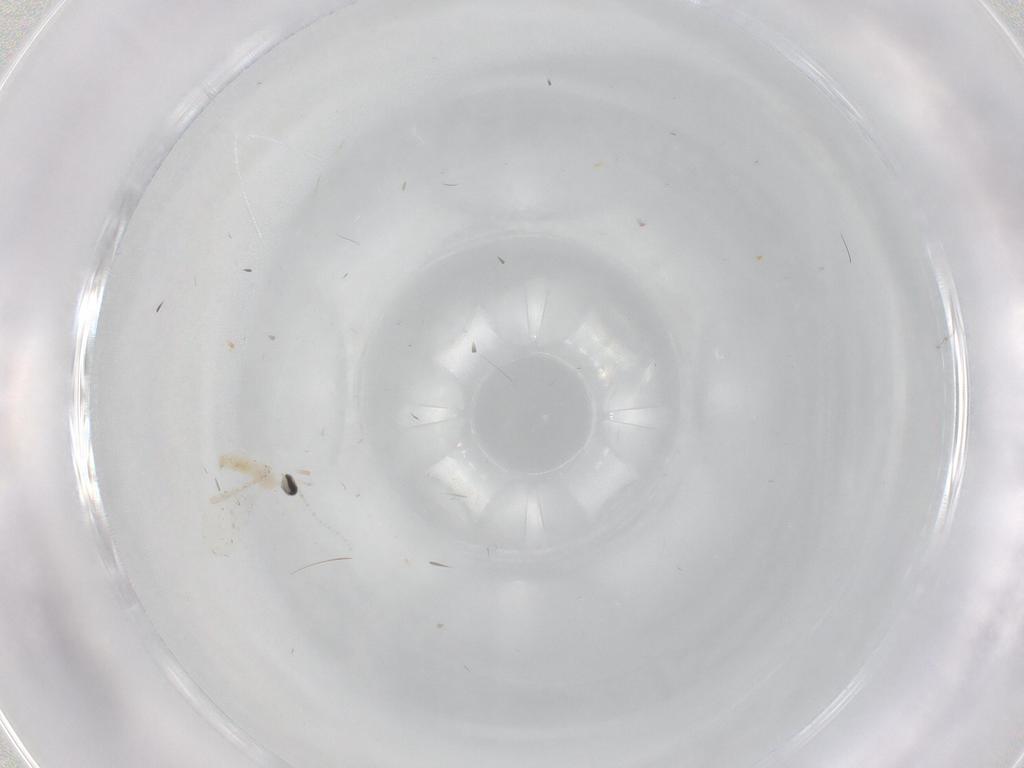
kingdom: Animalia
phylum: Arthropoda
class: Insecta
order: Diptera
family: Cecidomyiidae
